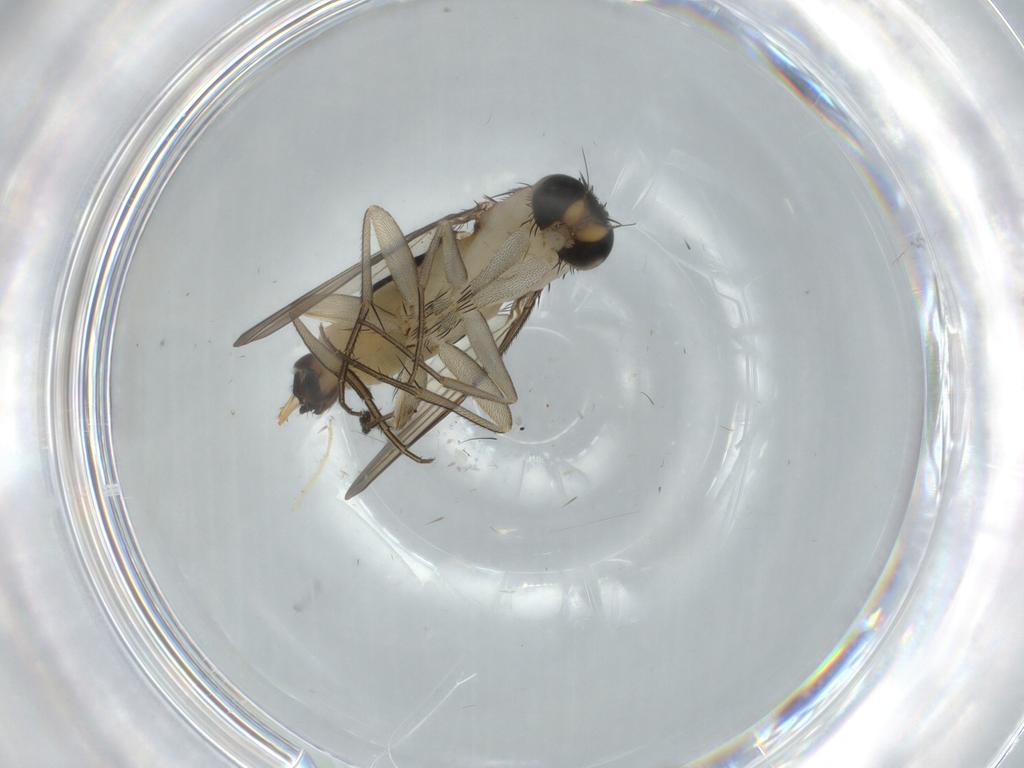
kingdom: Animalia
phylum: Arthropoda
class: Insecta
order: Diptera
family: Phoridae
